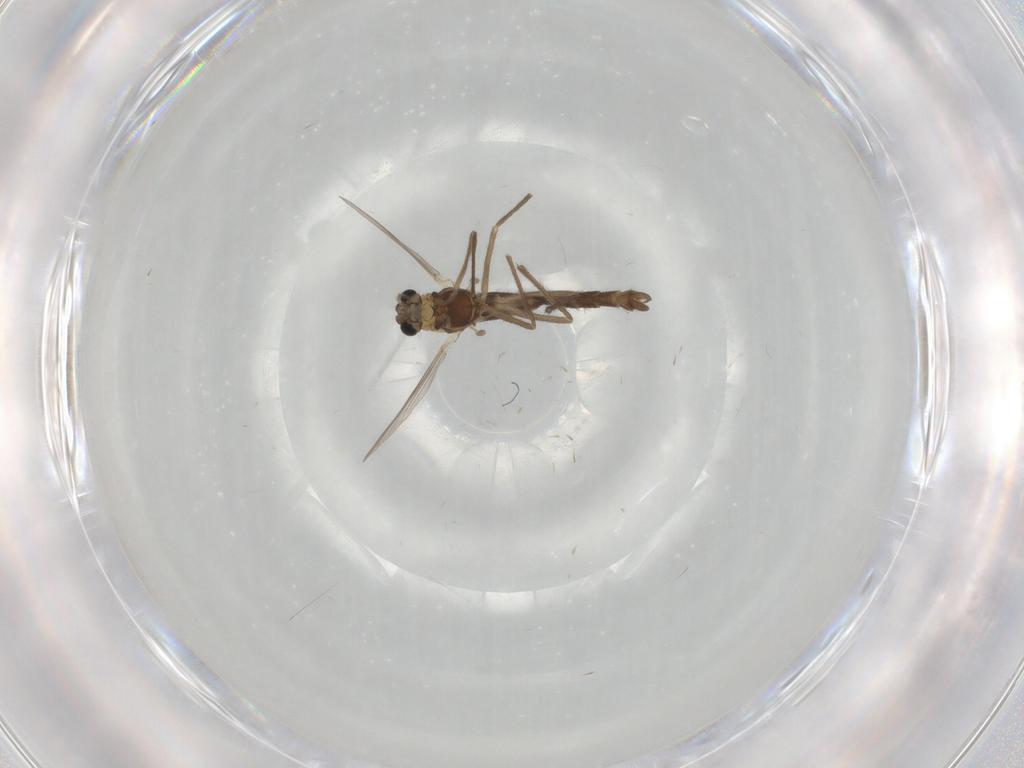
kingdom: Animalia
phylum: Arthropoda
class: Insecta
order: Diptera
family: Chironomidae
